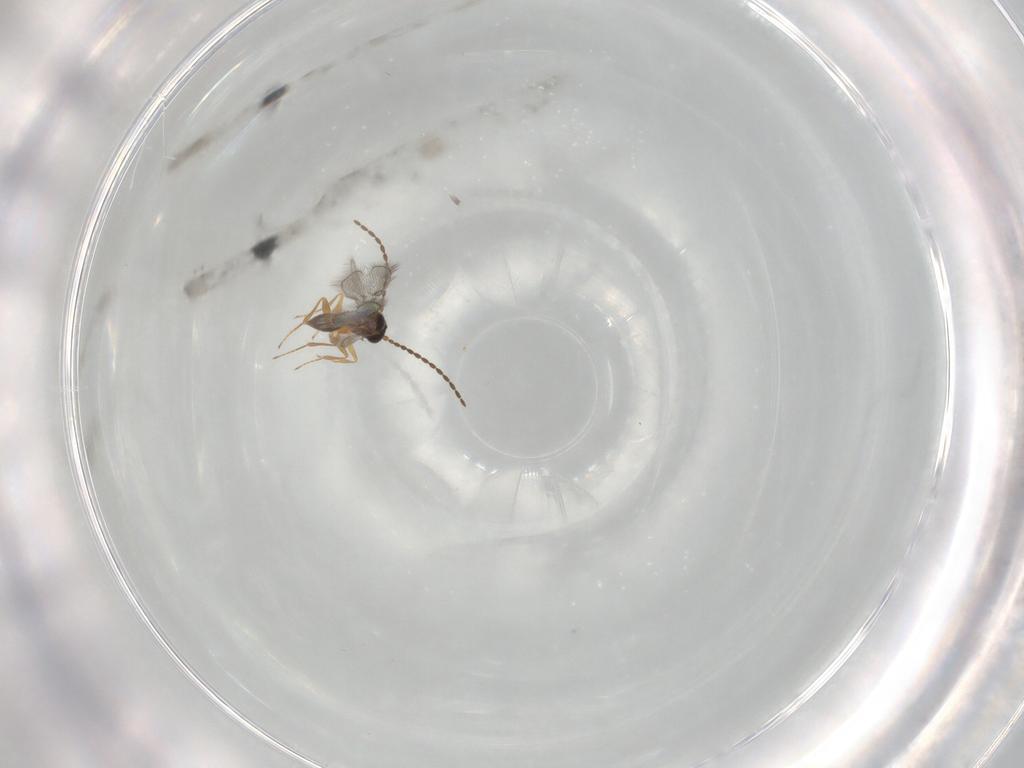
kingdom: Animalia
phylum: Arthropoda
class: Insecta
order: Hymenoptera
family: Figitidae
